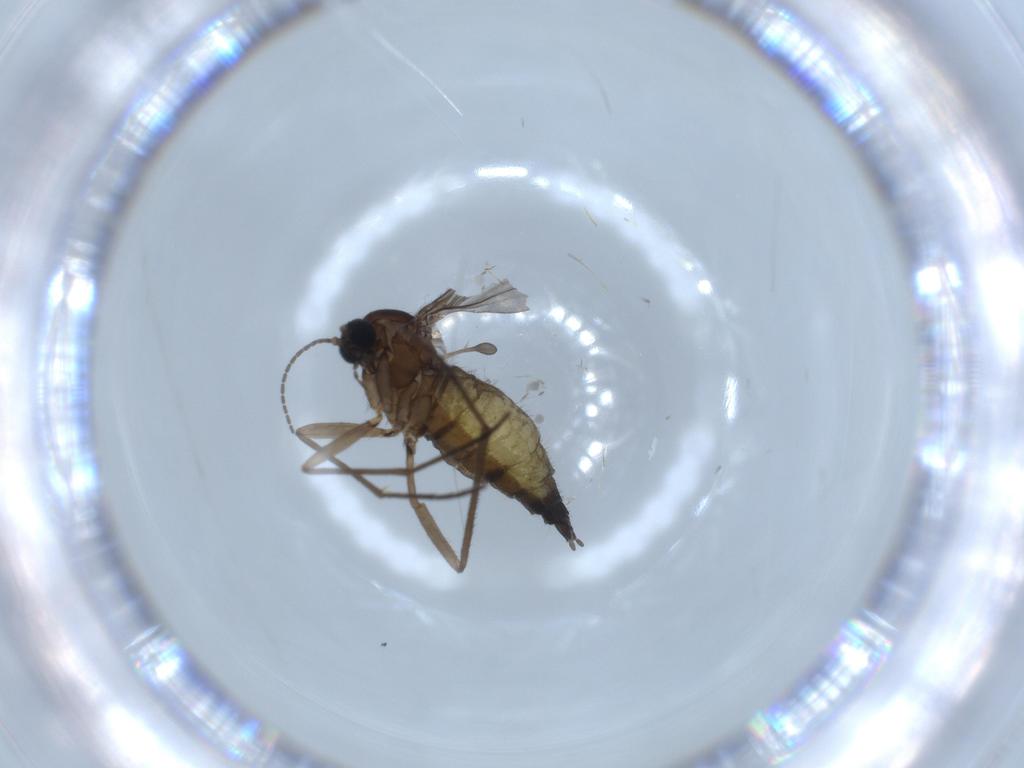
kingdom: Animalia
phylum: Arthropoda
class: Insecta
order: Diptera
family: Sciaridae
